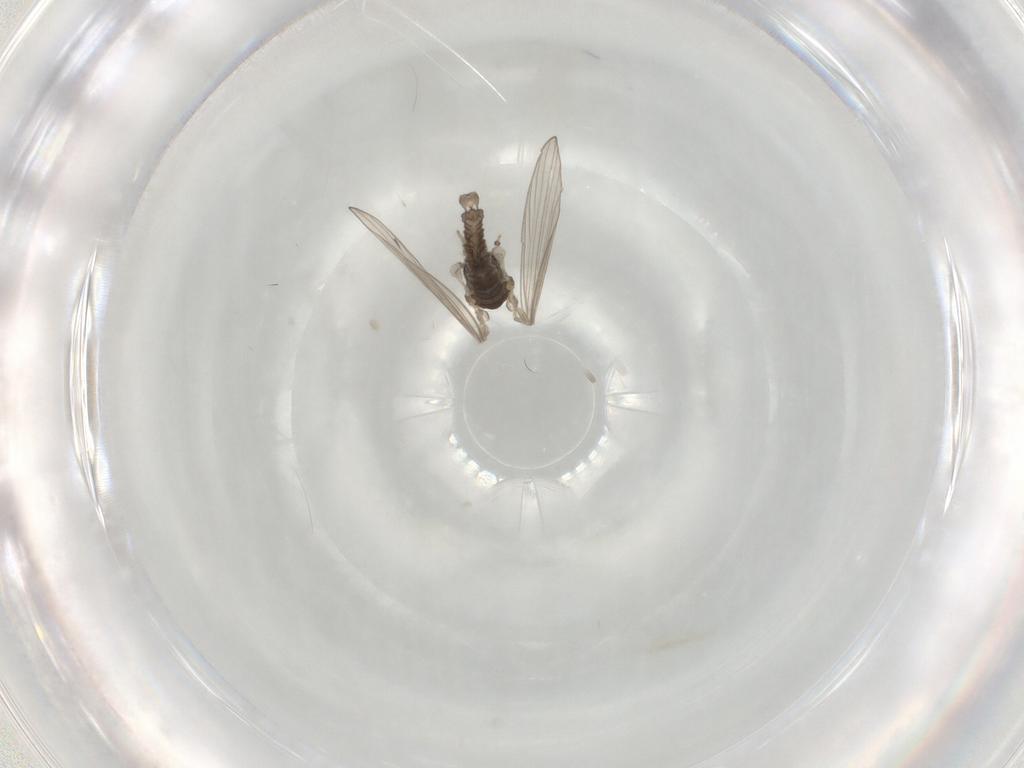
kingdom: Animalia
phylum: Arthropoda
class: Insecta
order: Diptera
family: Psychodidae
